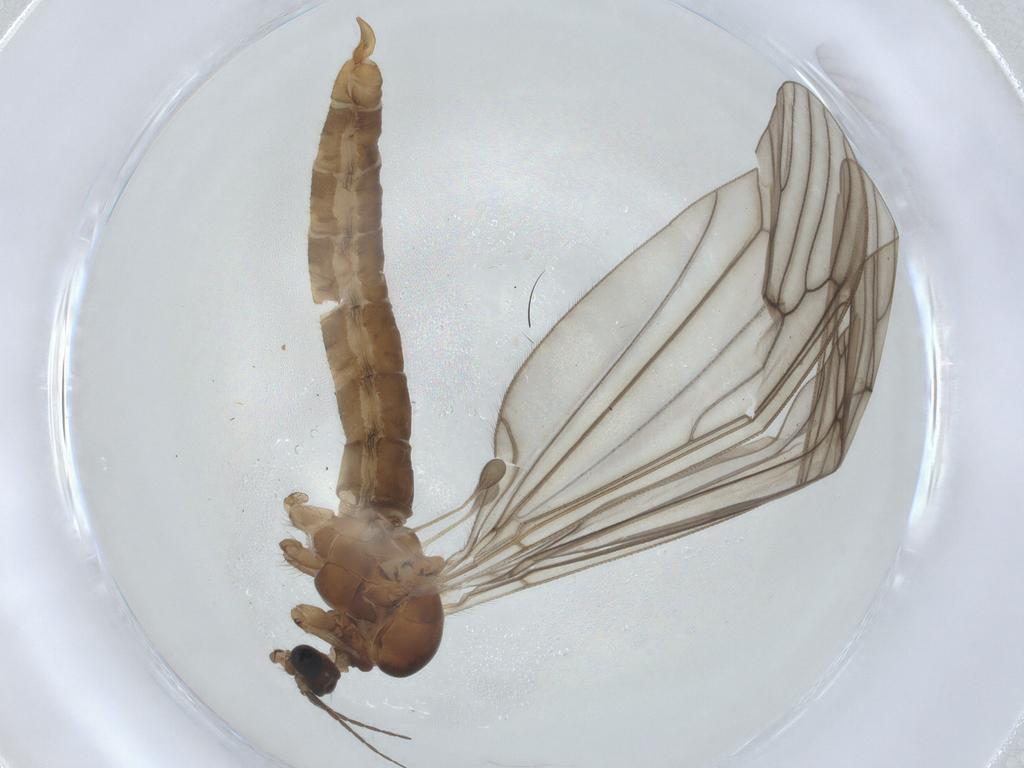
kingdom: Animalia
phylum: Arthropoda
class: Insecta
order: Diptera
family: Trichoceridae
